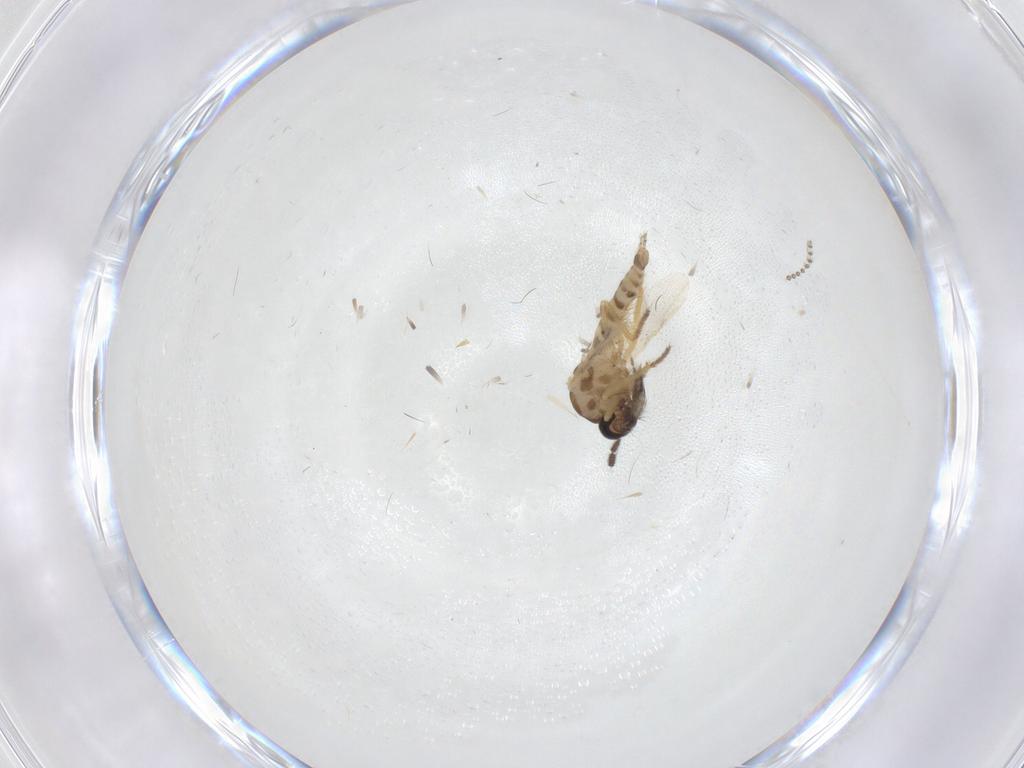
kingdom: Animalia
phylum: Arthropoda
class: Insecta
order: Diptera
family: Ceratopogonidae
